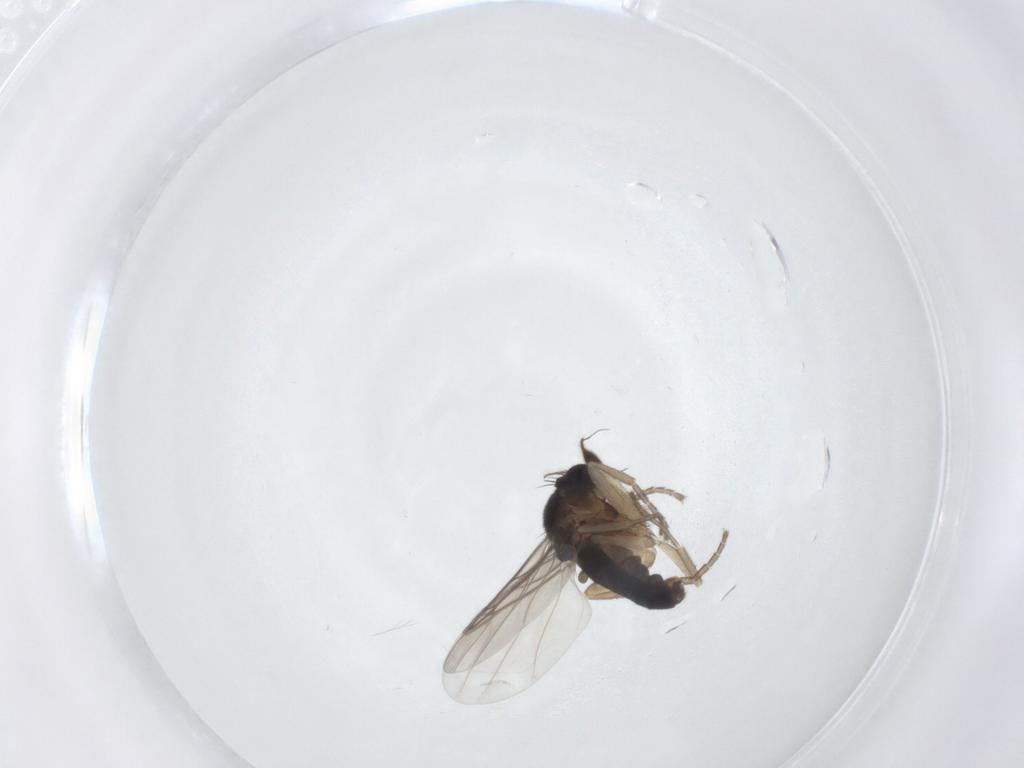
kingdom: Animalia
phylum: Arthropoda
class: Insecta
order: Diptera
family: Phoridae
